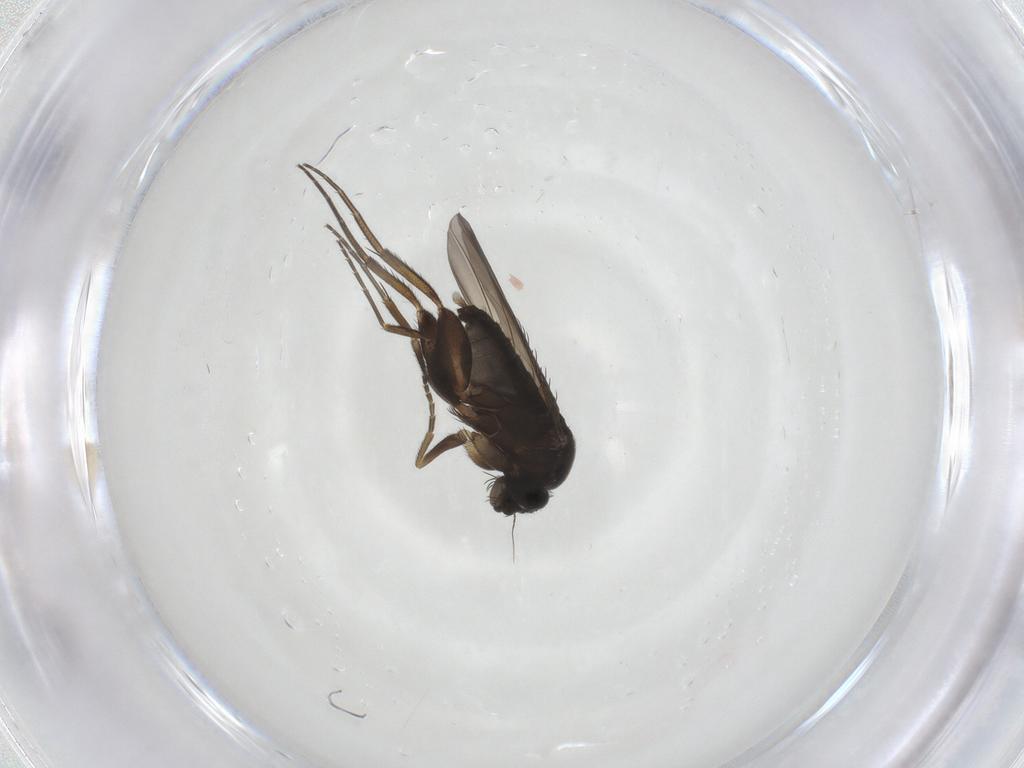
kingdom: Animalia
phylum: Arthropoda
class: Insecta
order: Diptera
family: Phoridae
